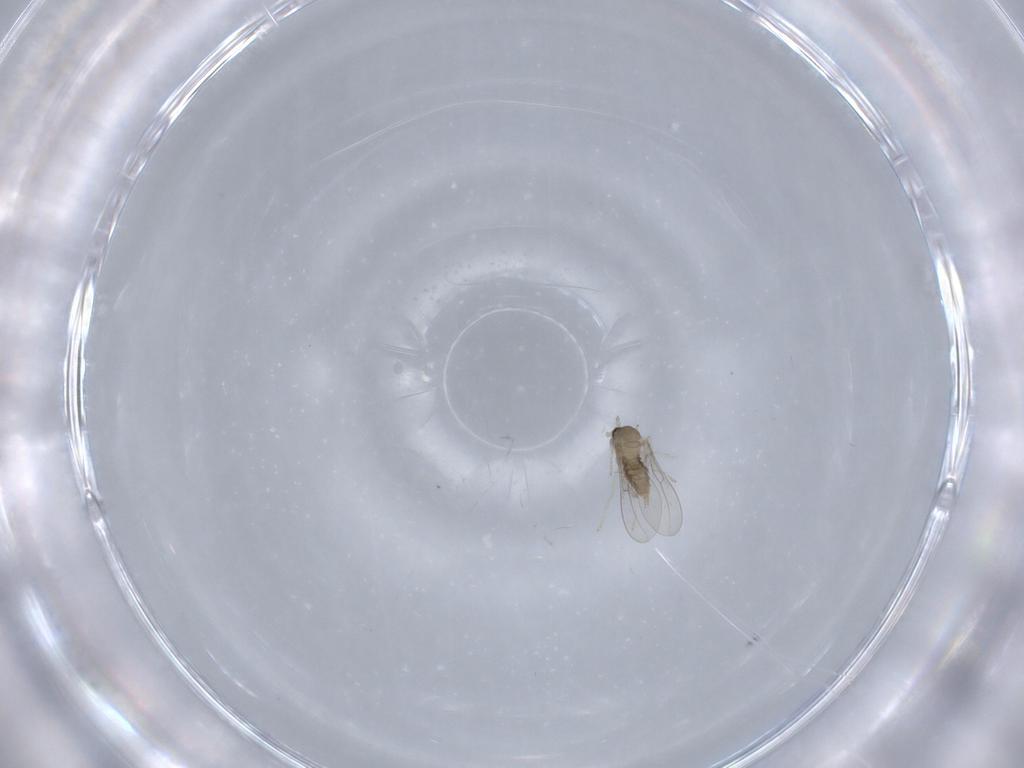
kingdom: Animalia
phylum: Arthropoda
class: Insecta
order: Diptera
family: Cecidomyiidae
